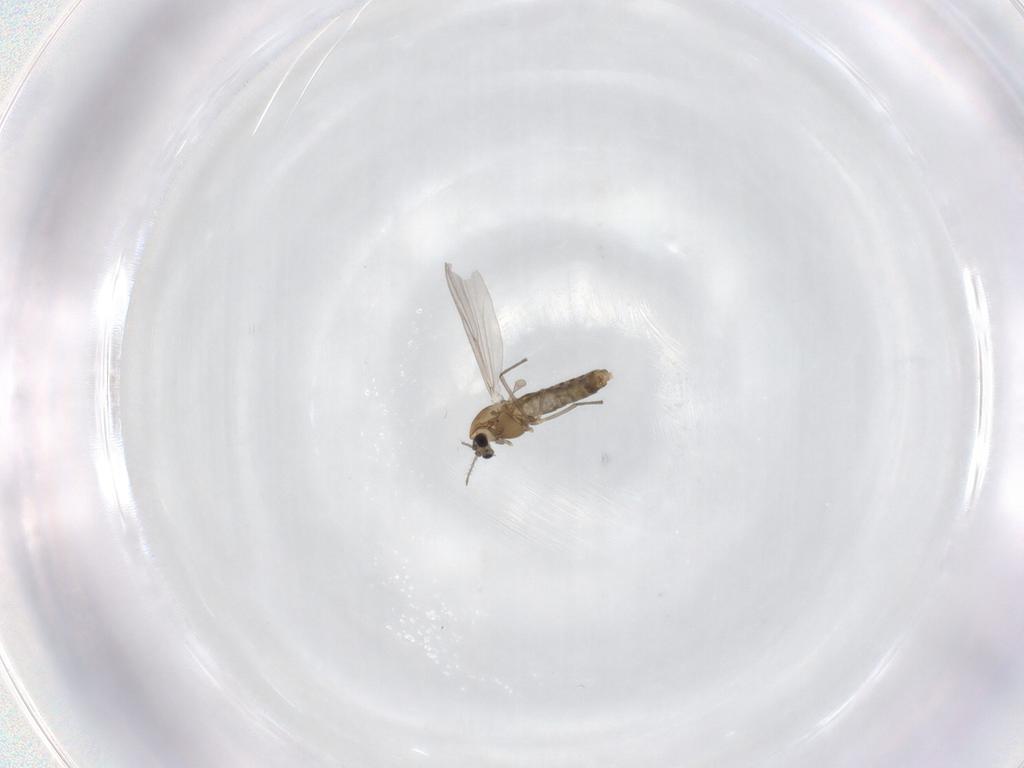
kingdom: Animalia
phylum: Arthropoda
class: Insecta
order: Diptera
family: Chironomidae
